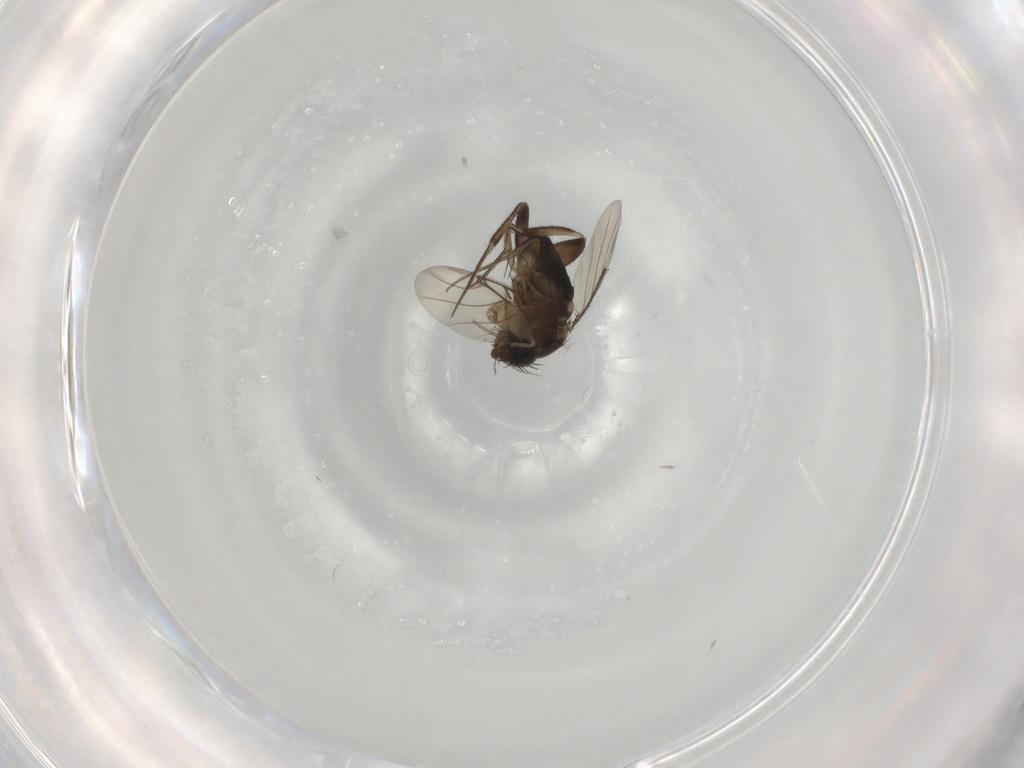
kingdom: Animalia
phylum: Arthropoda
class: Insecta
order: Diptera
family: Phoridae
